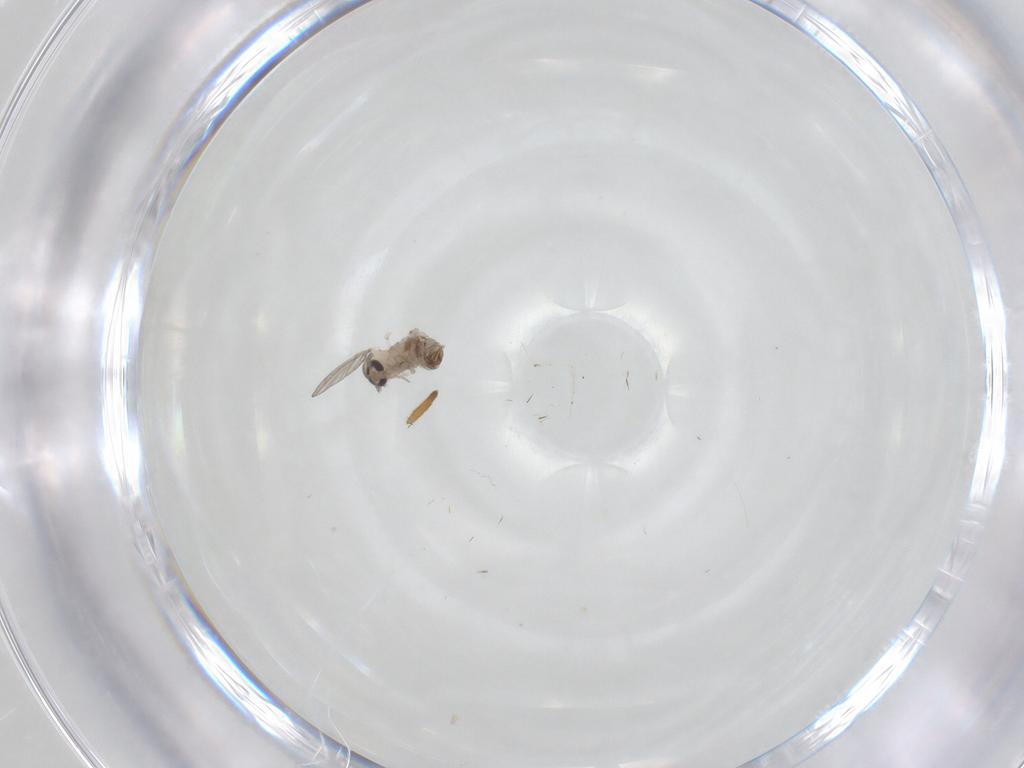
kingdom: Animalia
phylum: Arthropoda
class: Insecta
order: Diptera
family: Psychodidae
